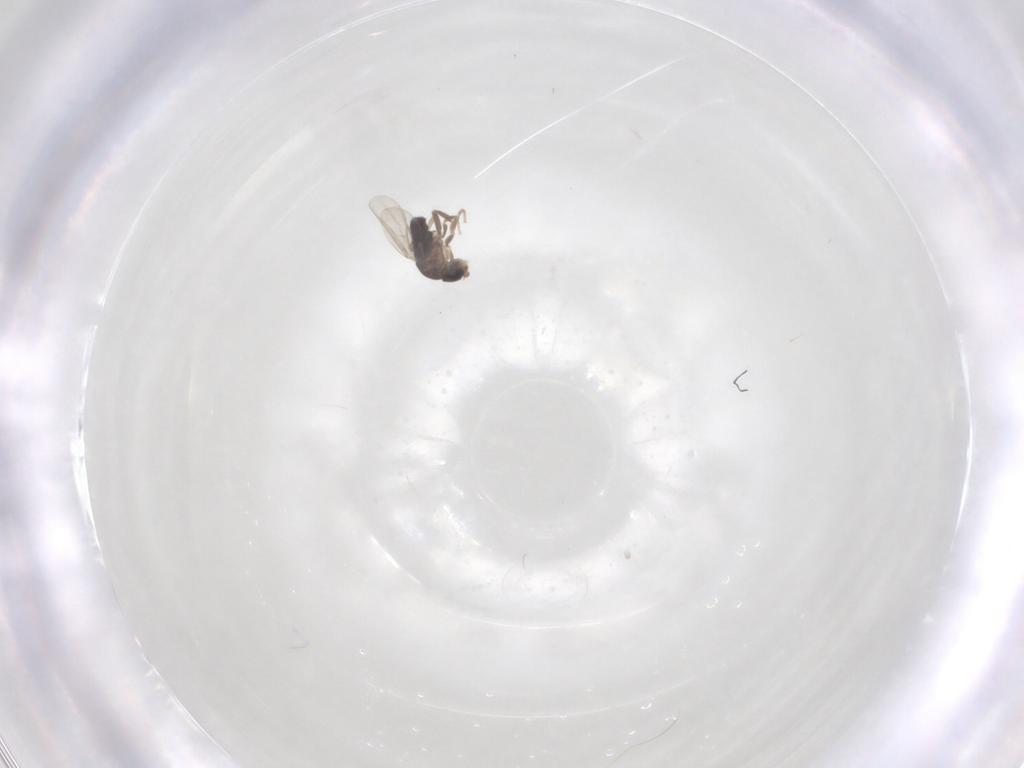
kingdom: Animalia
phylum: Arthropoda
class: Insecta
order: Diptera
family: Phoridae
